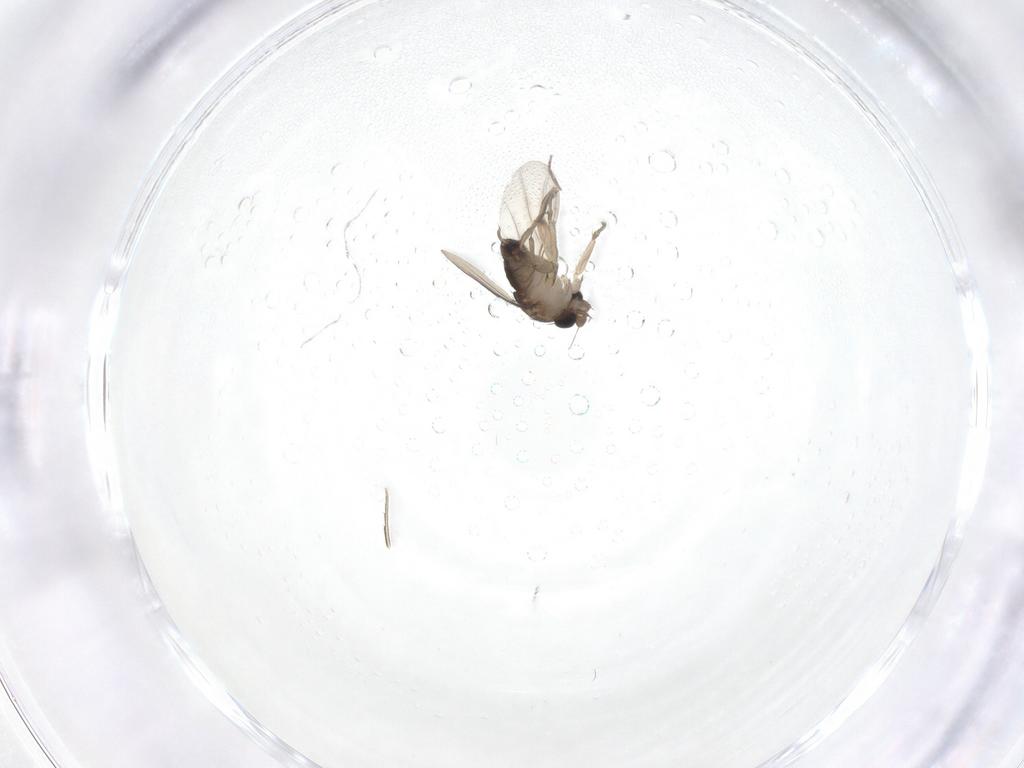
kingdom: Animalia
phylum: Arthropoda
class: Insecta
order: Diptera
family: Phoridae
